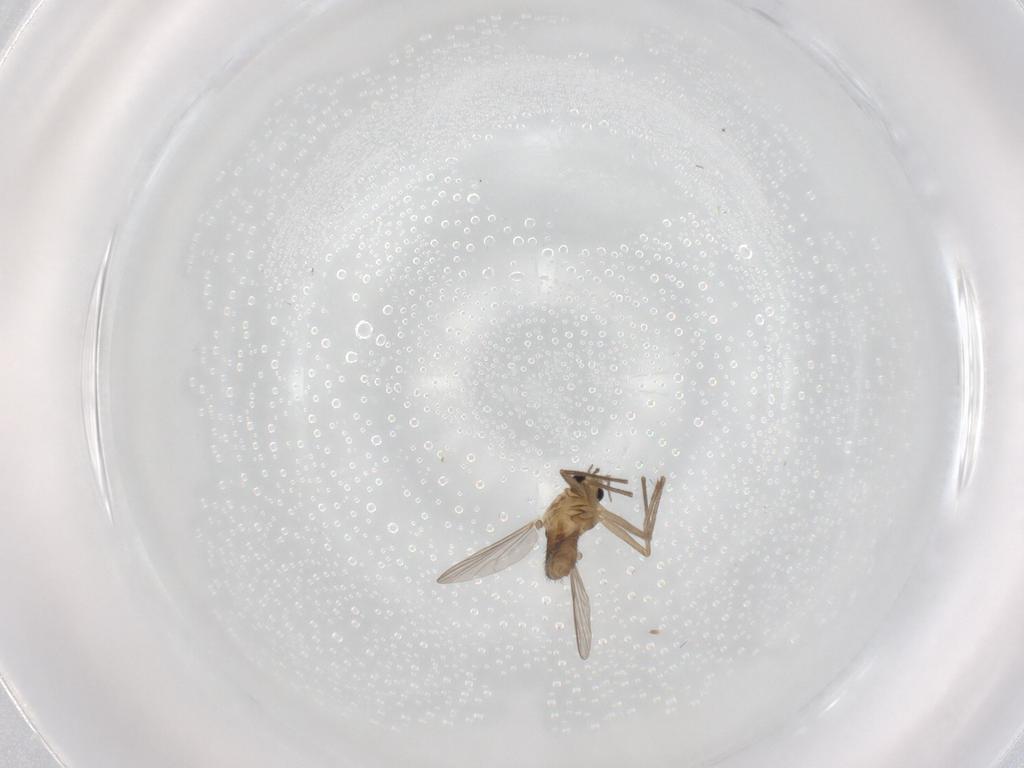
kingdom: Animalia
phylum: Arthropoda
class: Insecta
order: Diptera
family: Chironomidae
